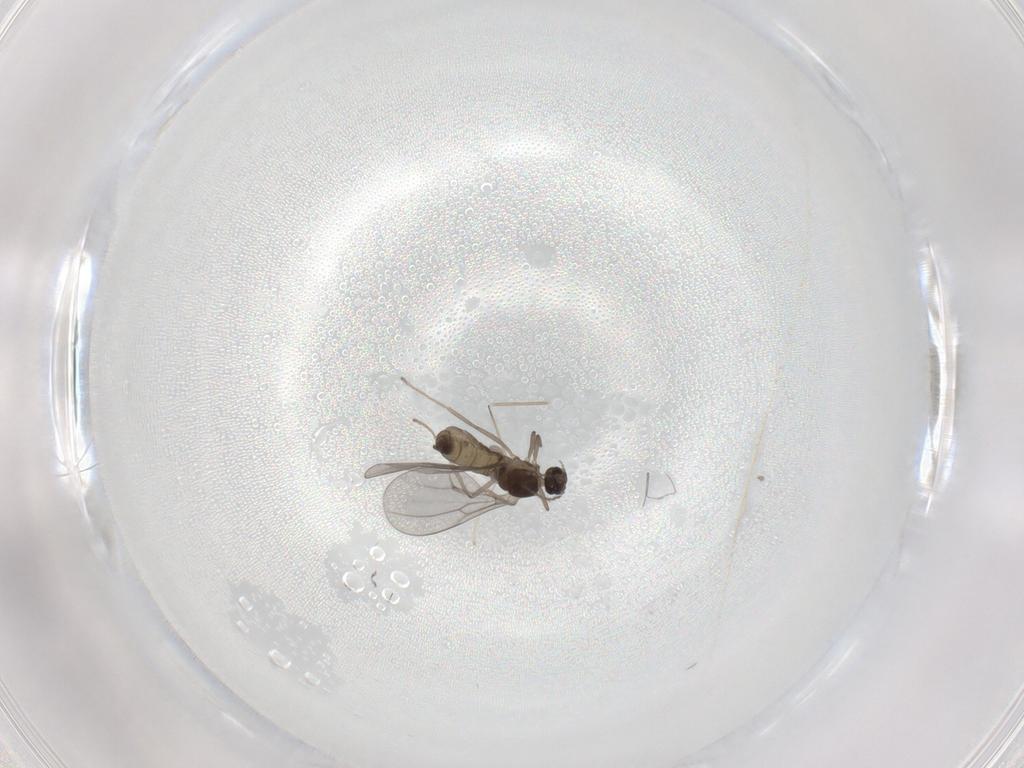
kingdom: Animalia
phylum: Arthropoda
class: Insecta
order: Diptera
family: Cecidomyiidae
